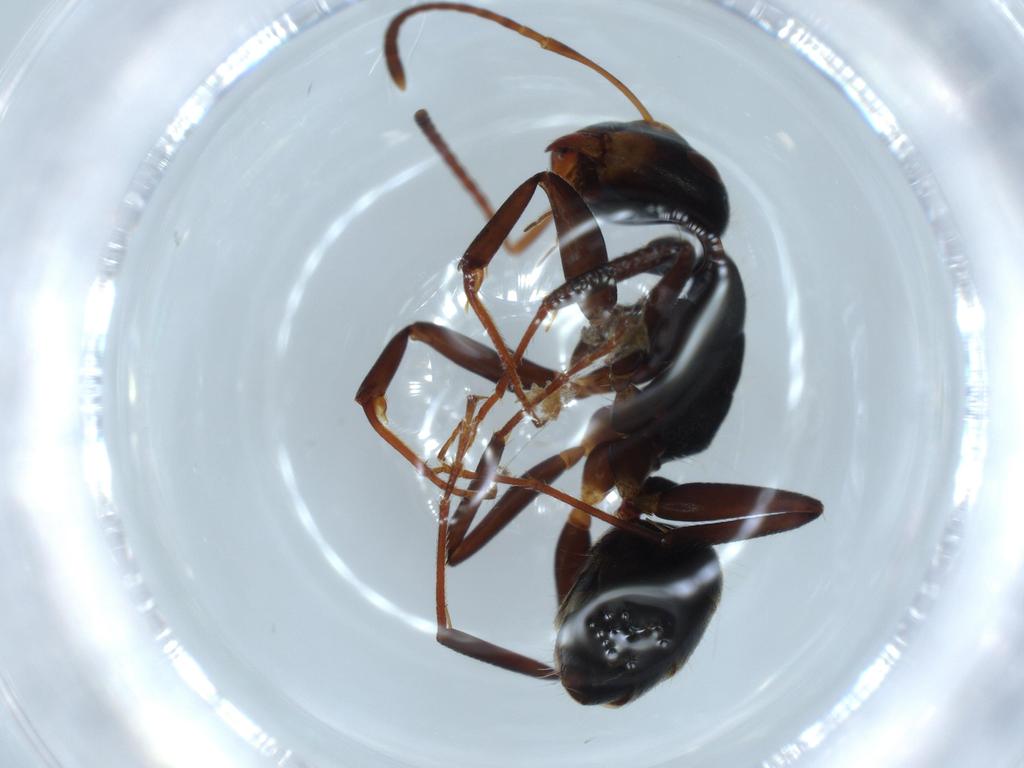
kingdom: Animalia
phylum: Arthropoda
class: Insecta
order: Hymenoptera
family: Formicidae
